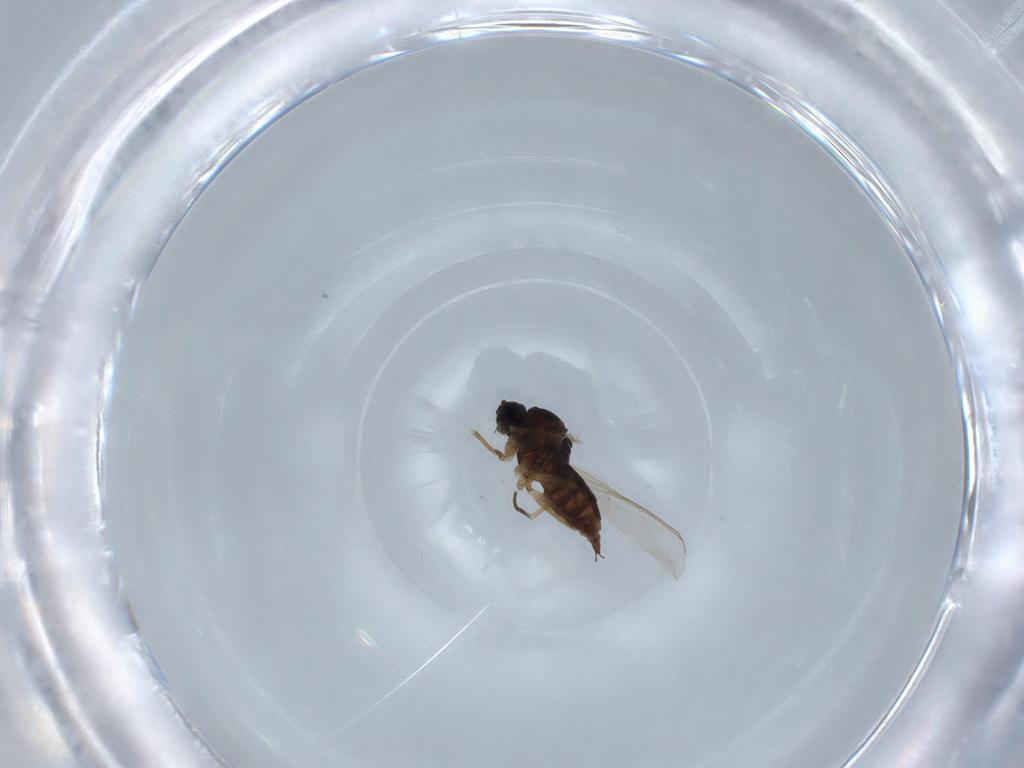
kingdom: Animalia
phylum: Arthropoda
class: Insecta
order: Diptera
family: Sciaridae
